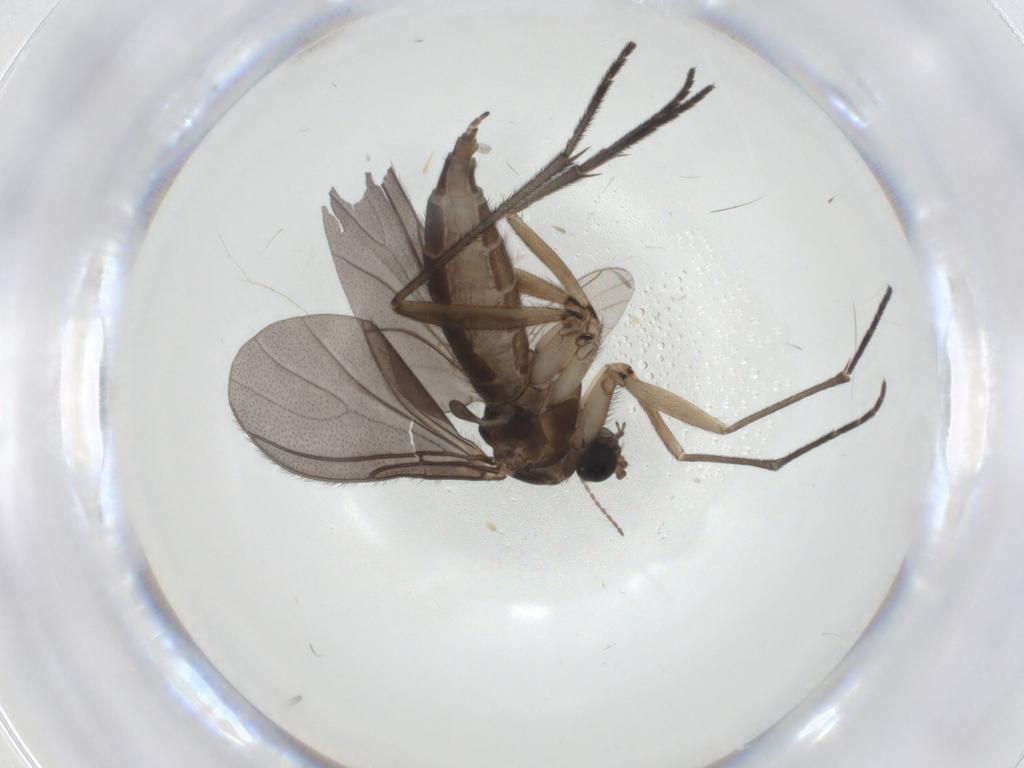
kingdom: Animalia
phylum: Arthropoda
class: Insecta
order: Diptera
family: Sciaridae
